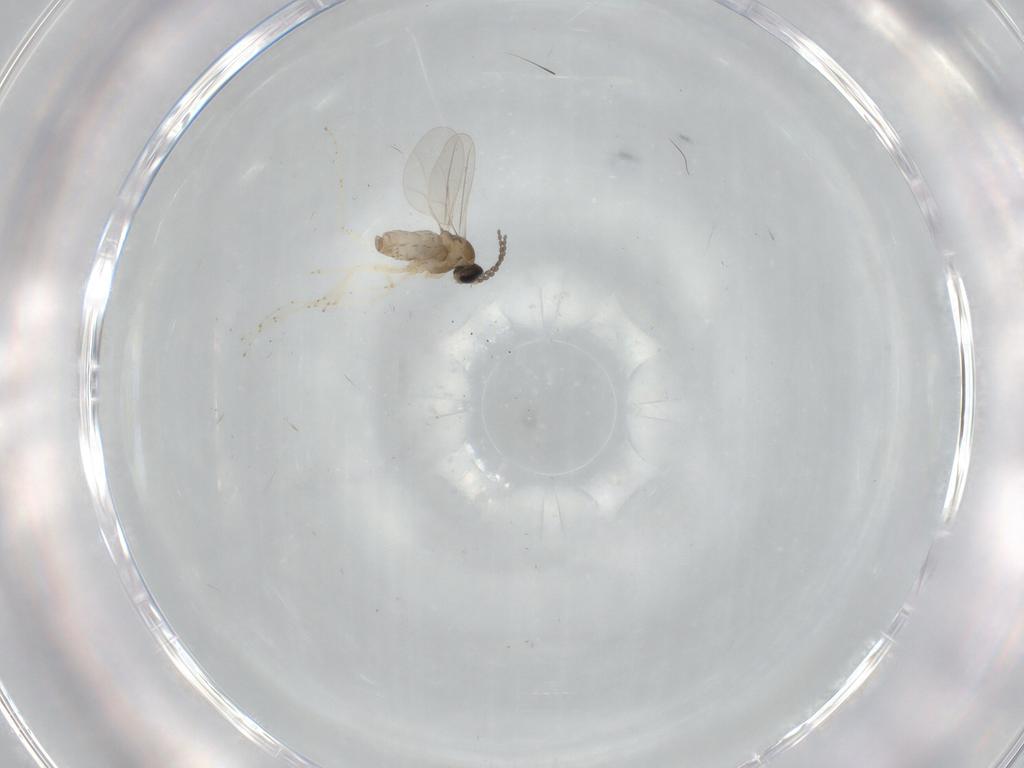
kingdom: Animalia
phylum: Arthropoda
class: Insecta
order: Diptera
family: Cecidomyiidae
